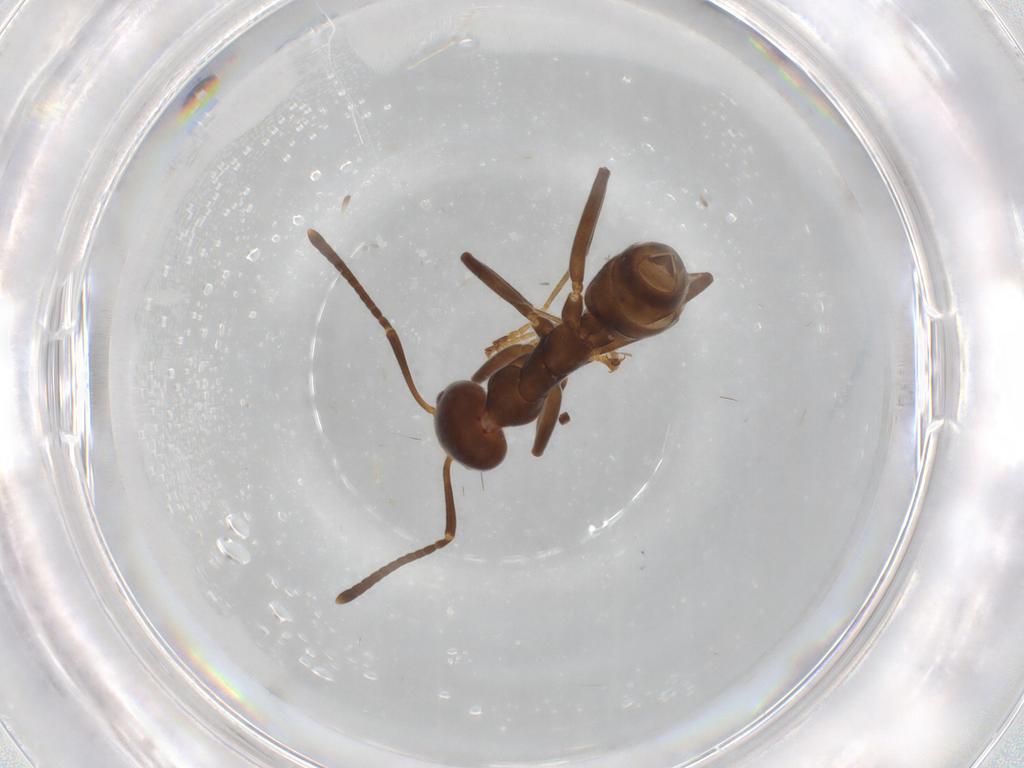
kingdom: Animalia
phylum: Arthropoda
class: Insecta
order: Hymenoptera
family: Formicidae
